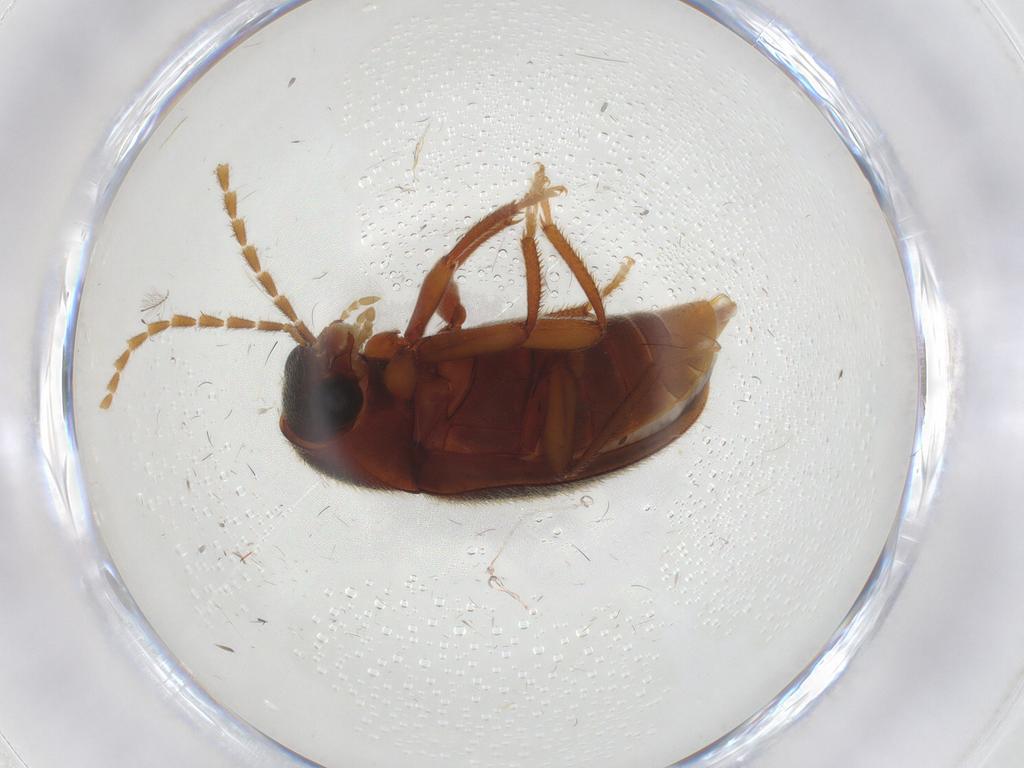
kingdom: Animalia
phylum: Arthropoda
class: Insecta
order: Coleoptera
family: Ptilodactylidae
